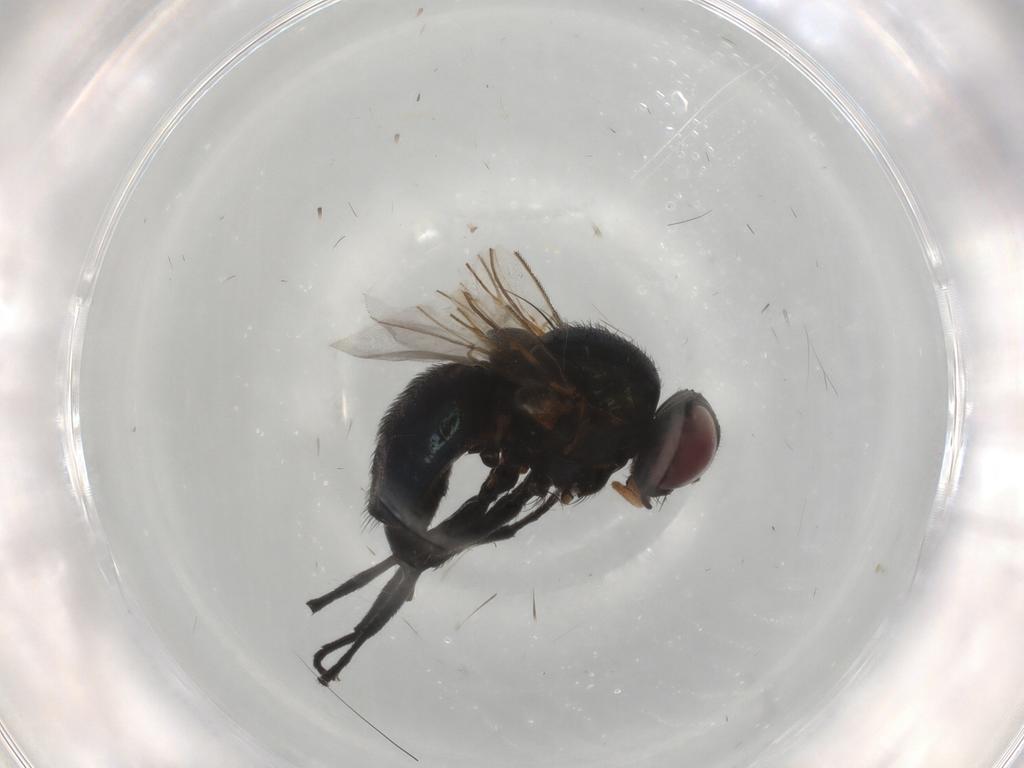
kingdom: Animalia
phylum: Arthropoda
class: Insecta
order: Diptera
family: Agromyzidae
